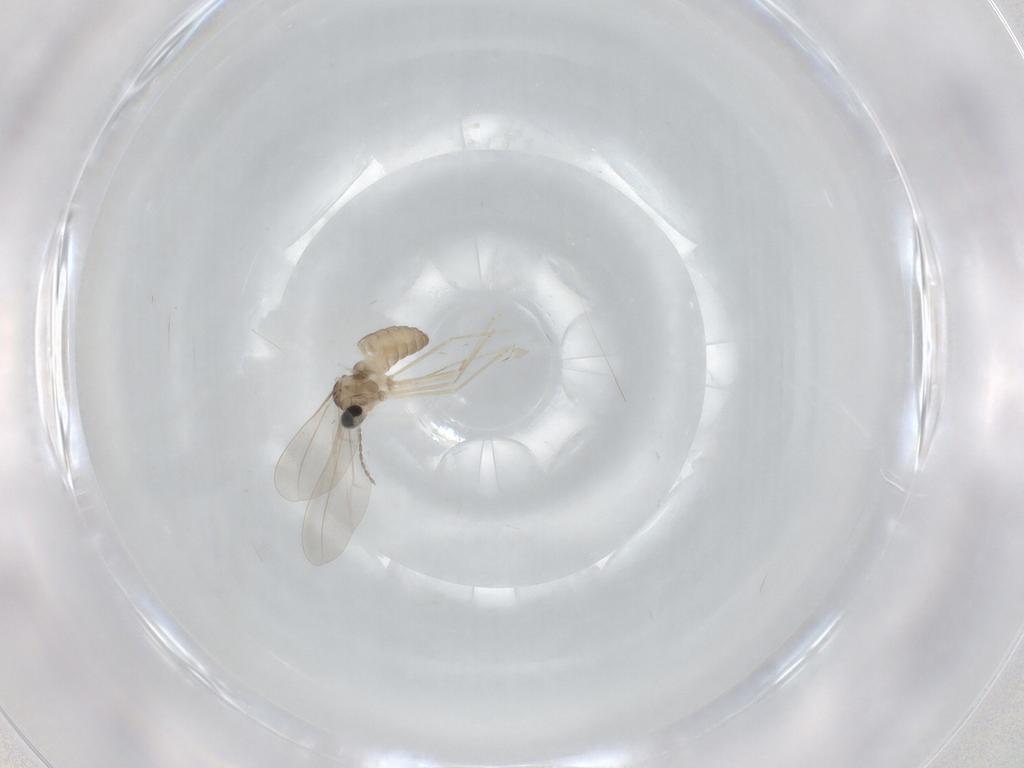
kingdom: Animalia
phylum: Arthropoda
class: Insecta
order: Diptera
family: Cecidomyiidae
